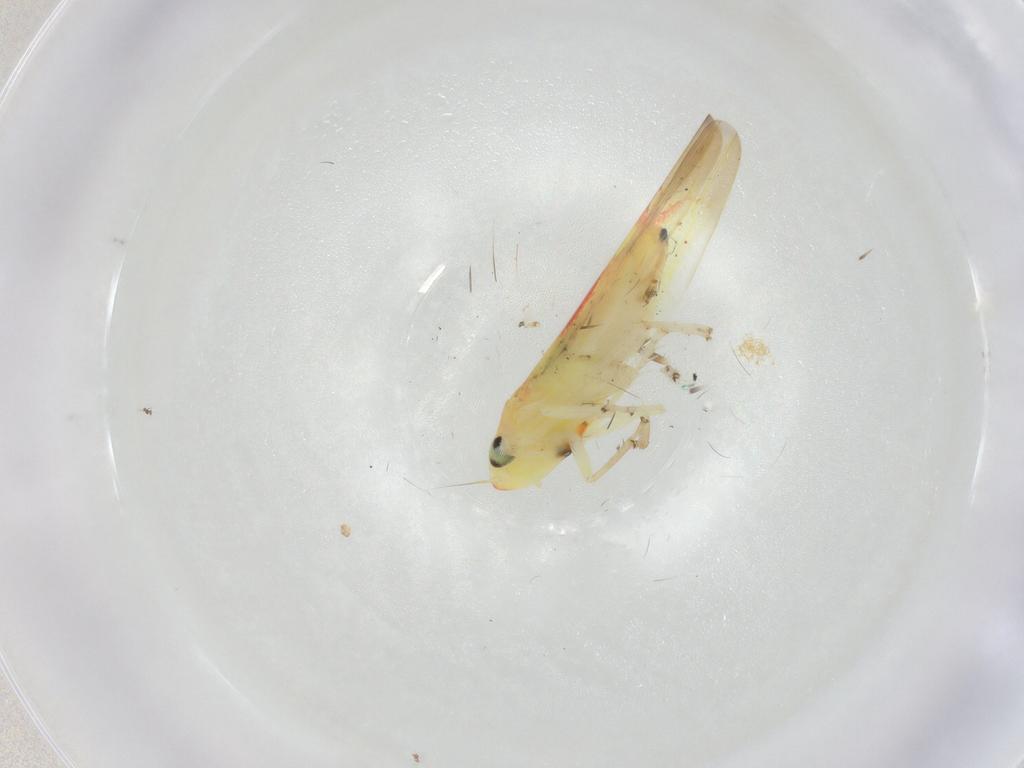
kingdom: Animalia
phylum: Arthropoda
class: Insecta
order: Hemiptera
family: Cicadellidae
